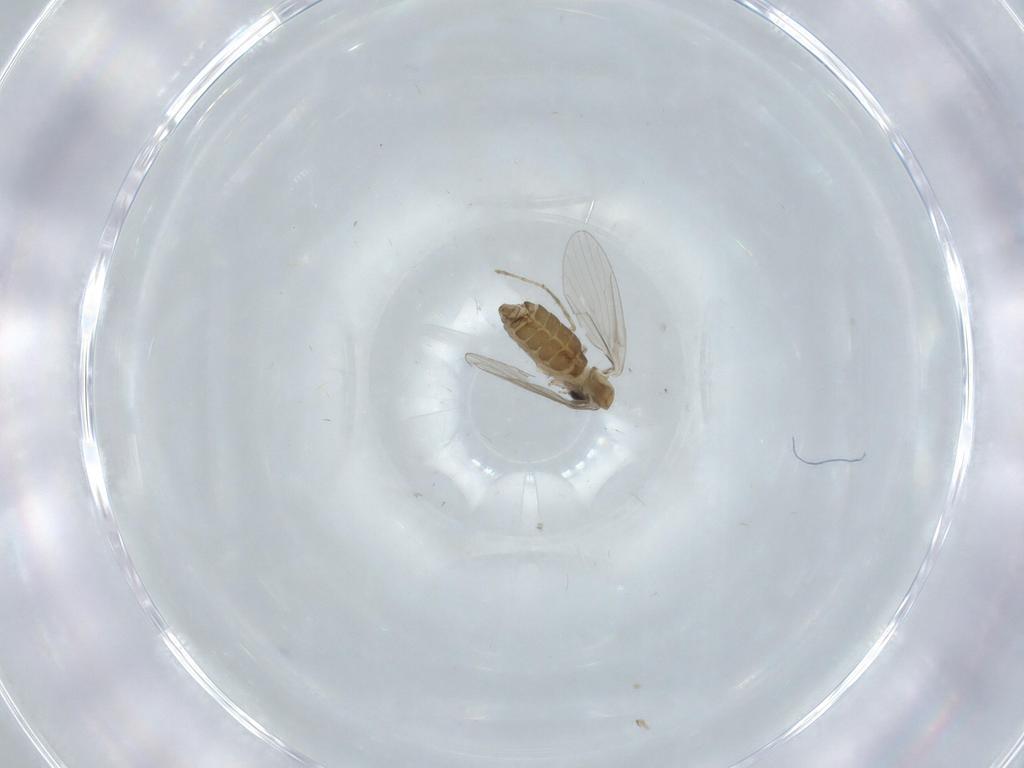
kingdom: Animalia
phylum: Arthropoda
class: Insecta
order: Diptera
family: Psychodidae
